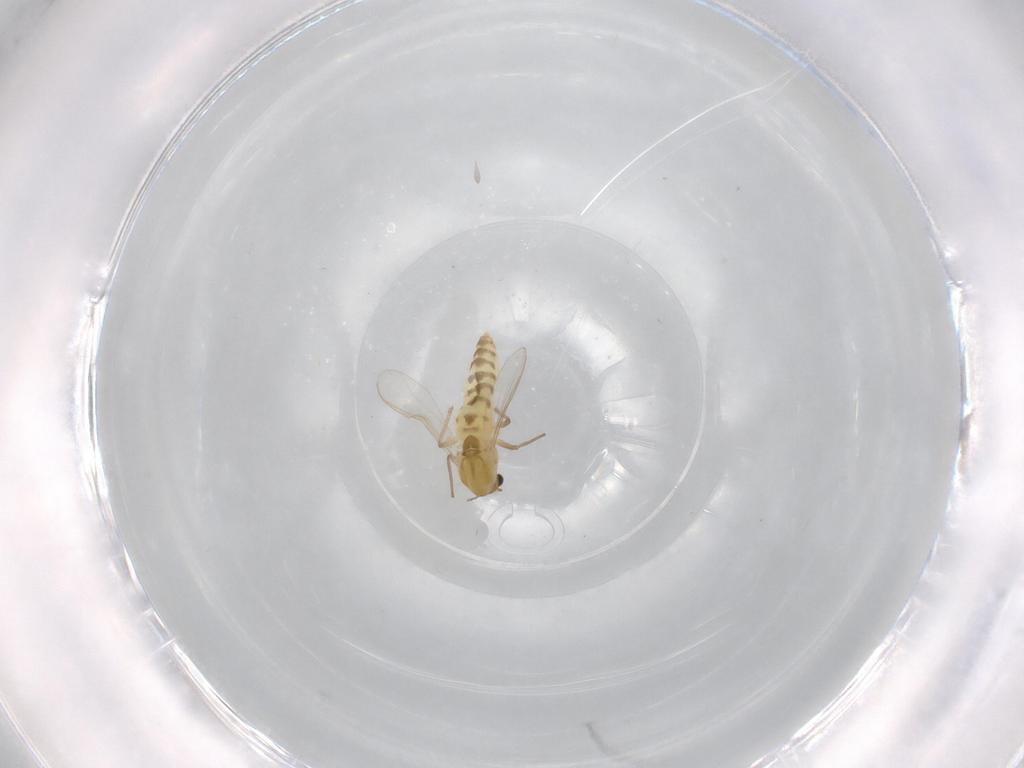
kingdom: Animalia
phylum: Arthropoda
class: Insecta
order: Diptera
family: Chironomidae
